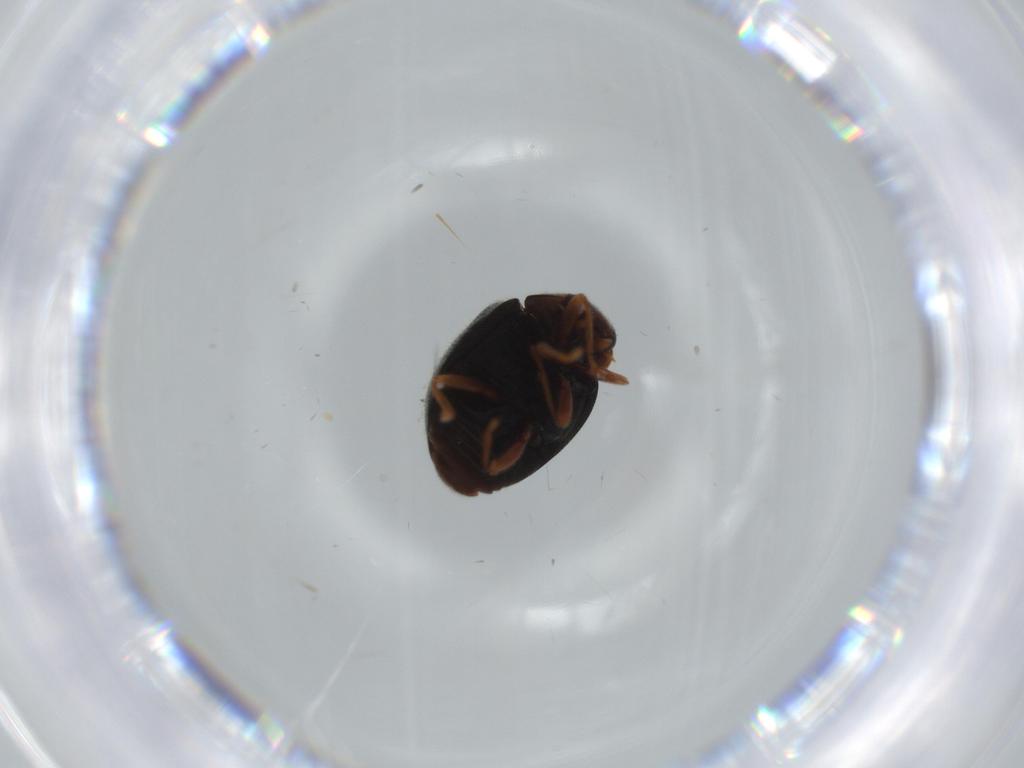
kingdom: Animalia
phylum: Arthropoda
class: Insecta
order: Coleoptera
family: Coccinellidae
